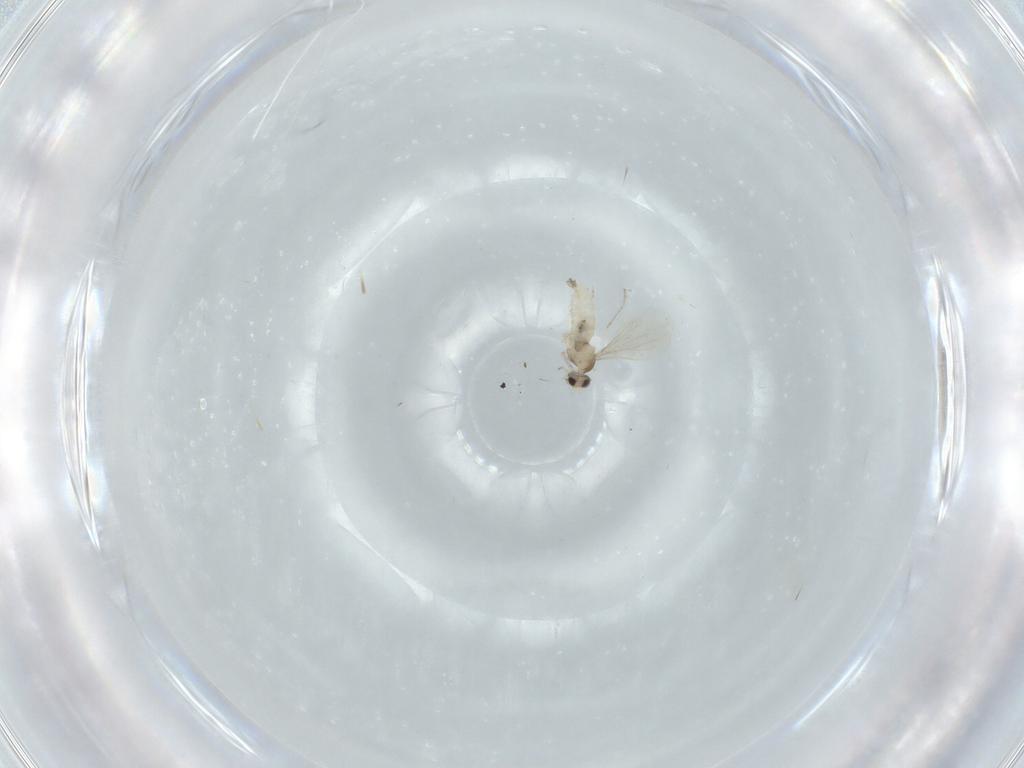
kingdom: Animalia
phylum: Arthropoda
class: Insecta
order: Diptera
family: Cecidomyiidae
